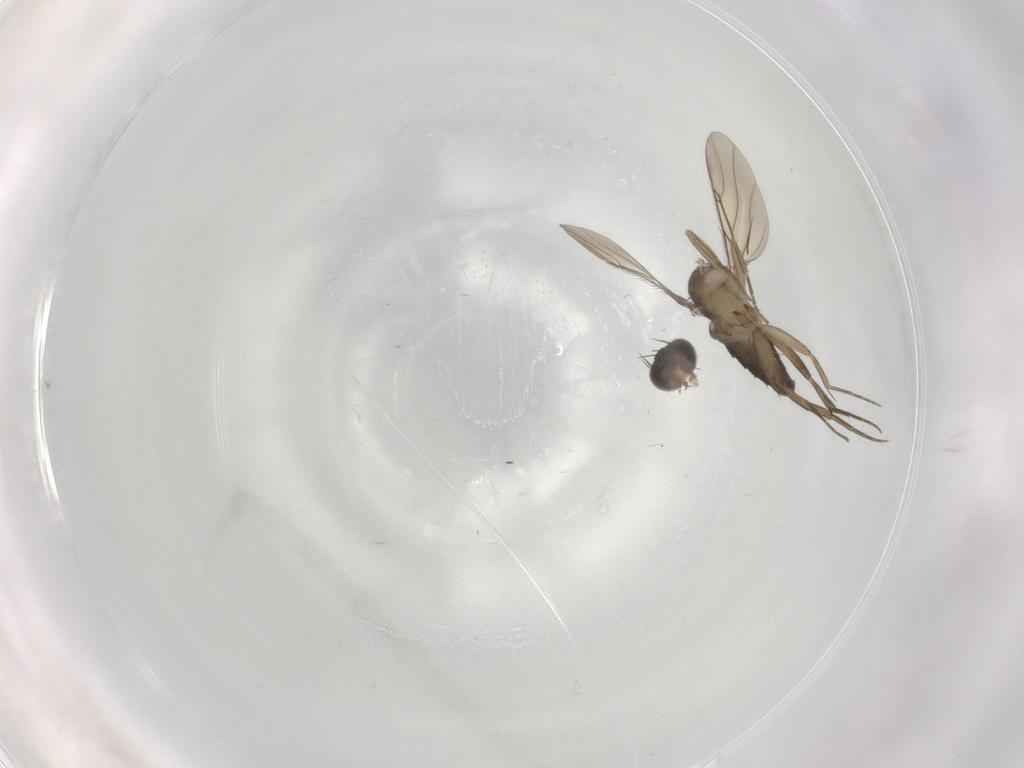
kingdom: Animalia
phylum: Arthropoda
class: Insecta
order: Diptera
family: Phoridae
